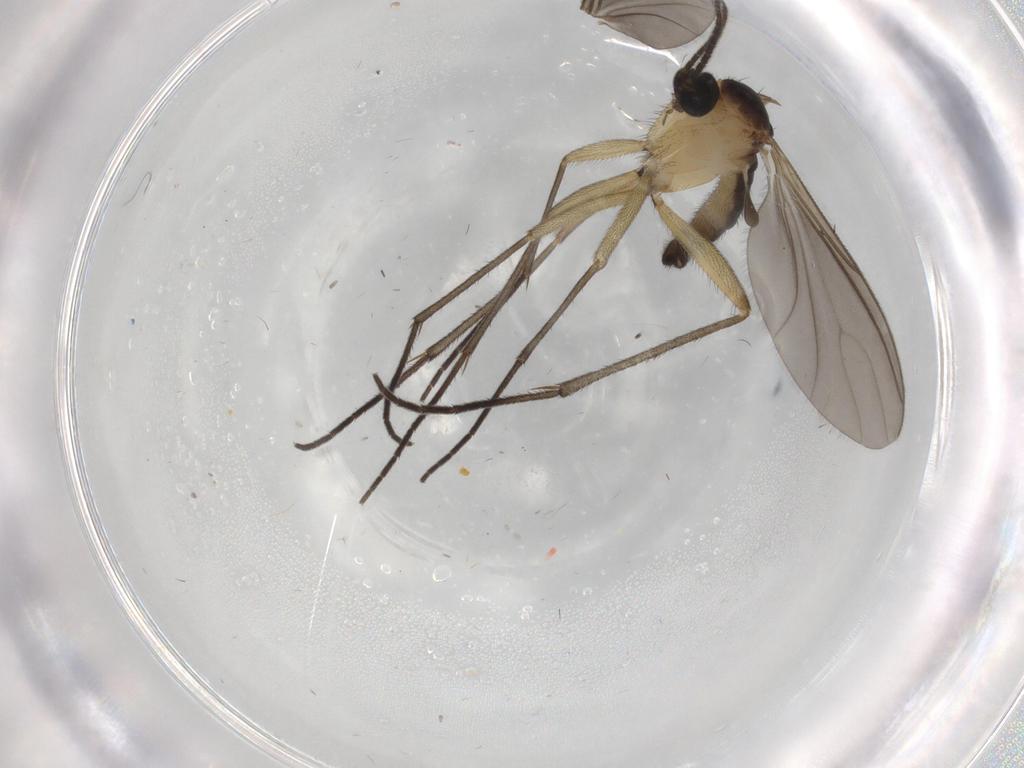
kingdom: Animalia
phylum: Arthropoda
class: Insecta
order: Diptera
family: Sciaridae
